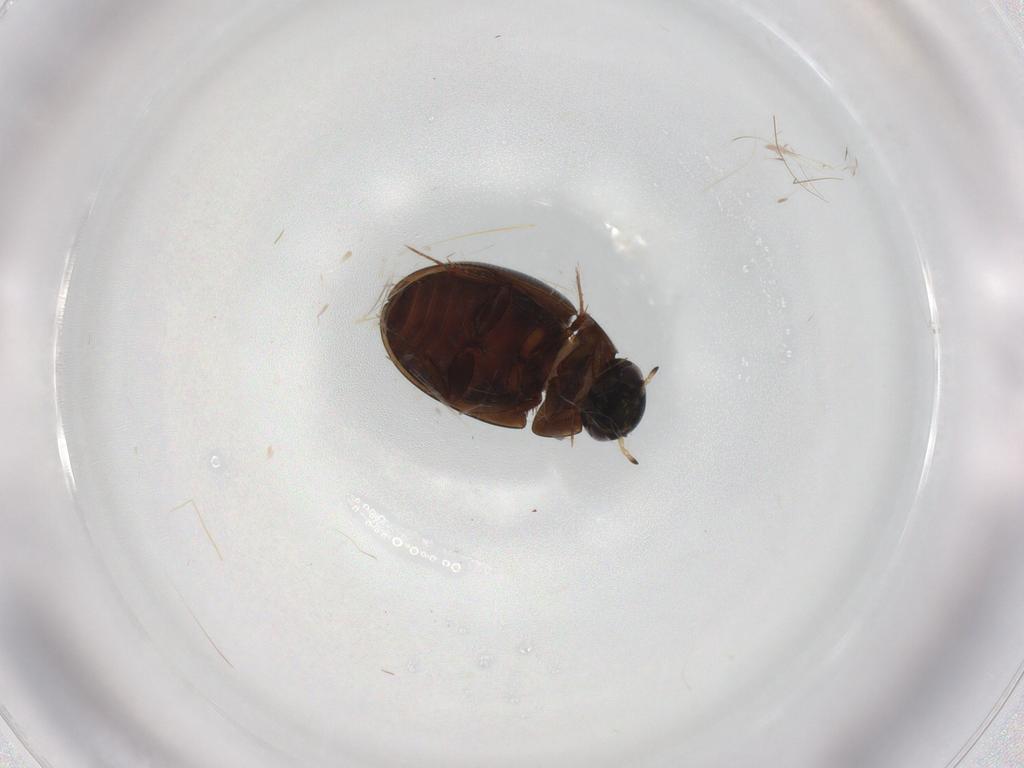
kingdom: Animalia
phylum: Arthropoda
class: Insecta
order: Coleoptera
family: Hydrophilidae
